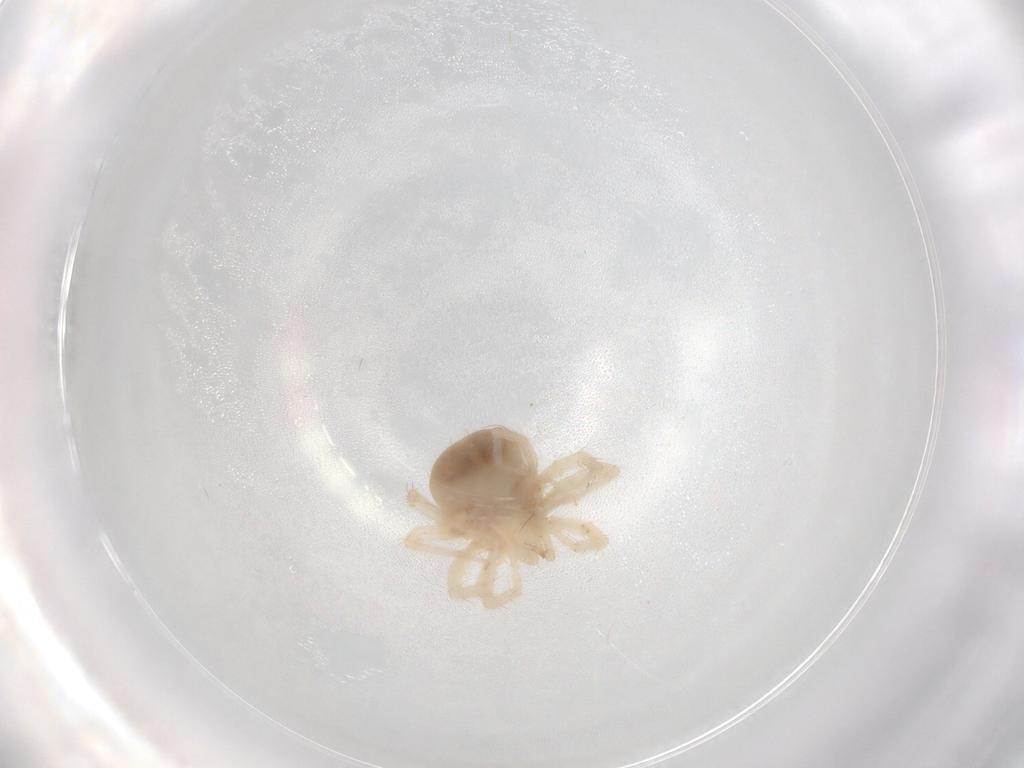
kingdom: Animalia
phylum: Arthropoda
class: Arachnida
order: Trombidiformes
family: Anystidae
